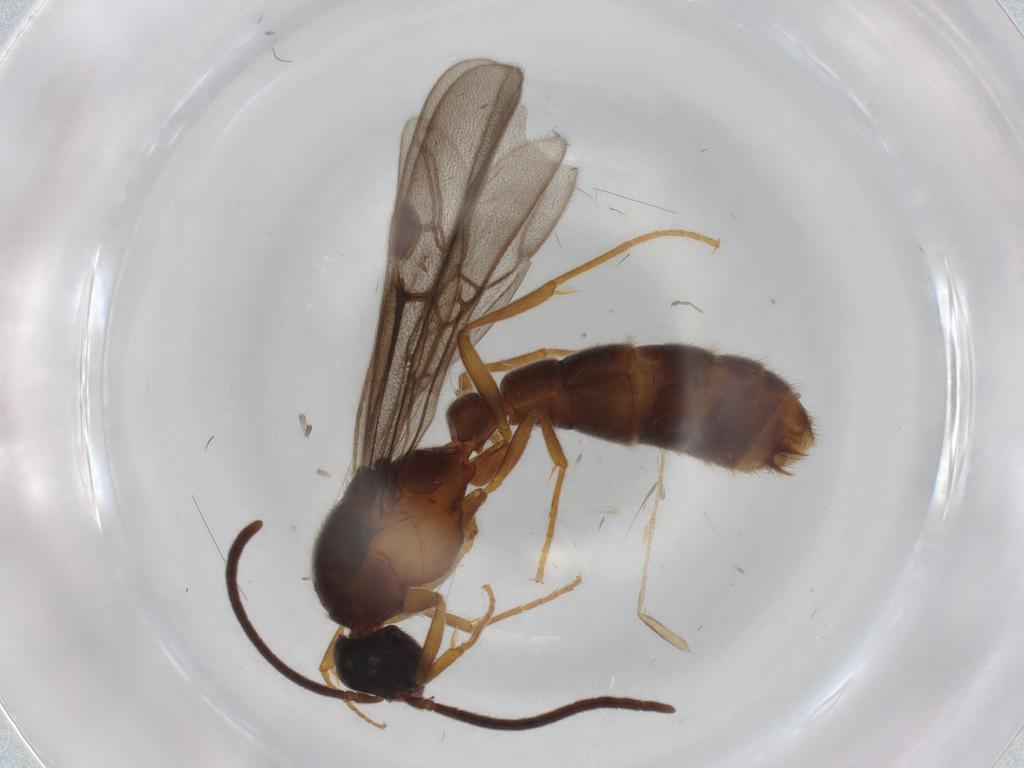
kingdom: Animalia
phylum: Arthropoda
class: Insecta
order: Hymenoptera
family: Formicidae
